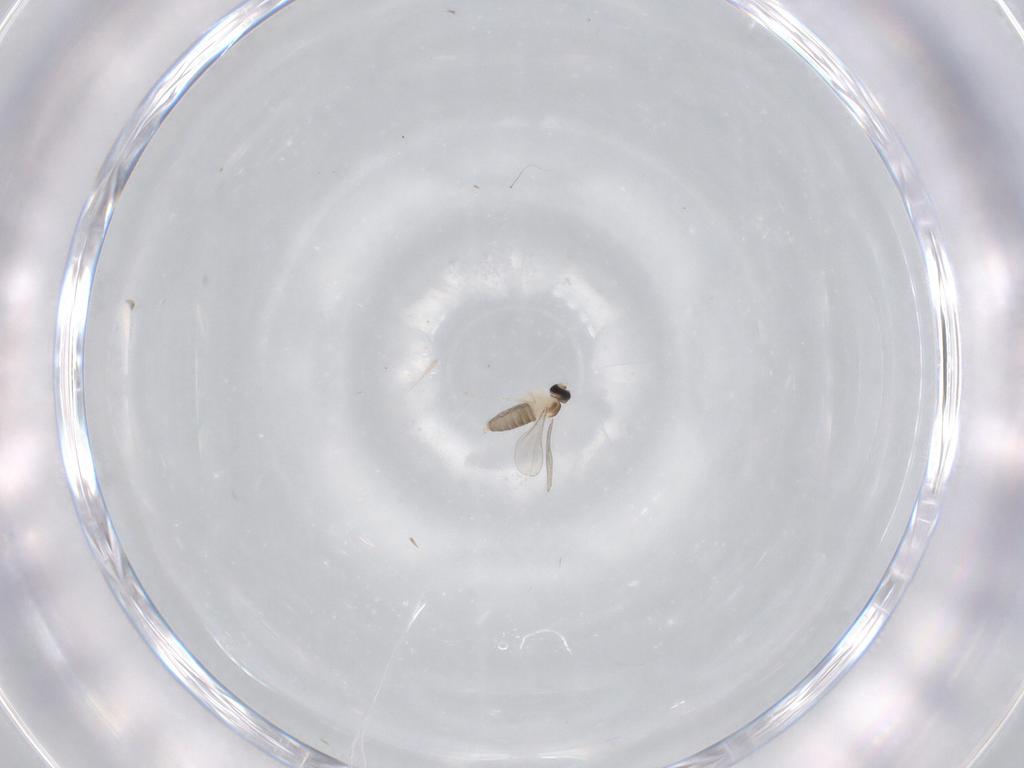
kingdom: Animalia
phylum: Arthropoda
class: Insecta
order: Diptera
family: Cecidomyiidae
